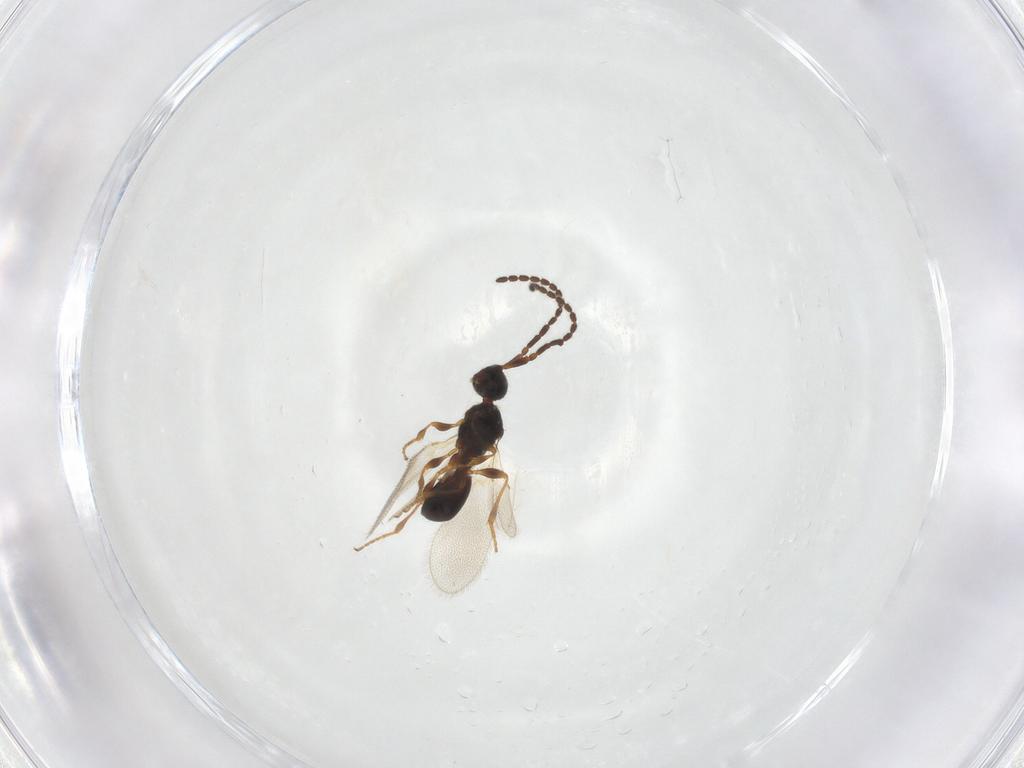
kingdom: Animalia
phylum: Arthropoda
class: Insecta
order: Hymenoptera
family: Diapriidae
